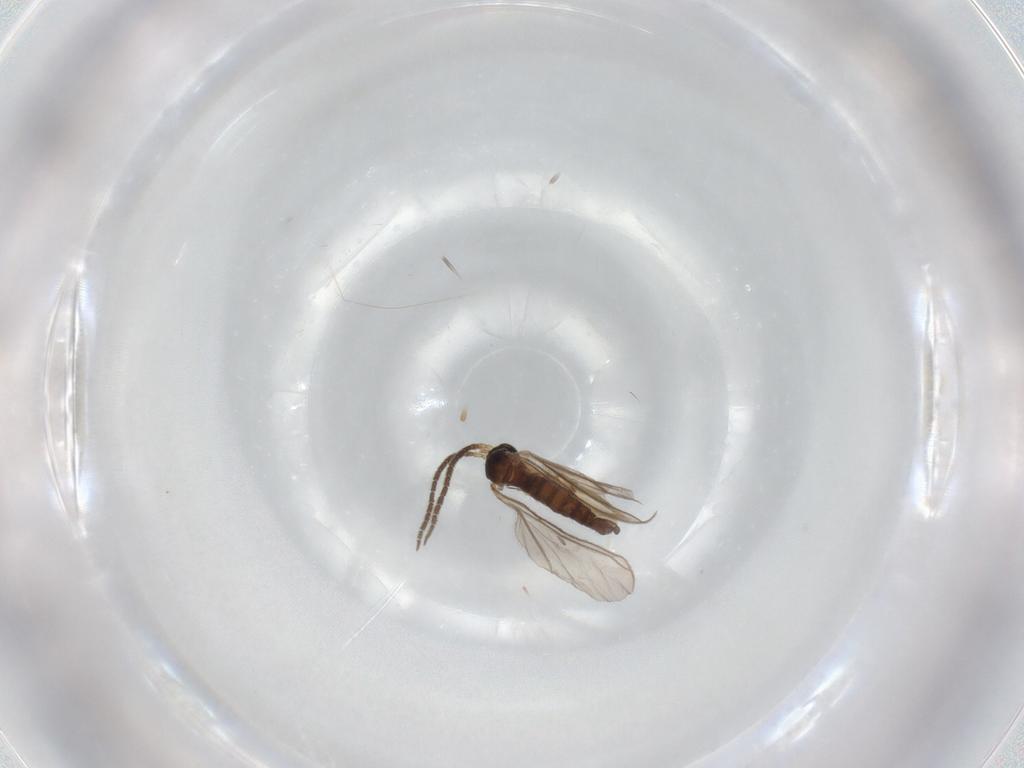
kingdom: Animalia
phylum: Arthropoda
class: Insecta
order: Diptera
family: Sciaridae
